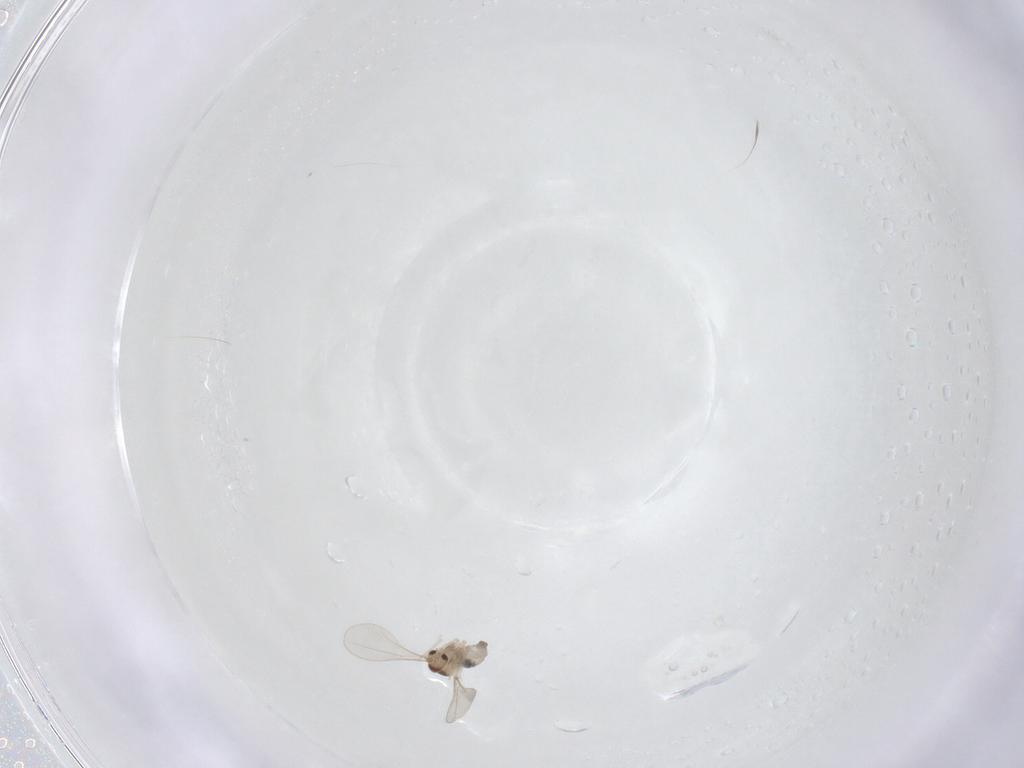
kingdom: Animalia
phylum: Arthropoda
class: Insecta
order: Diptera
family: Cecidomyiidae
